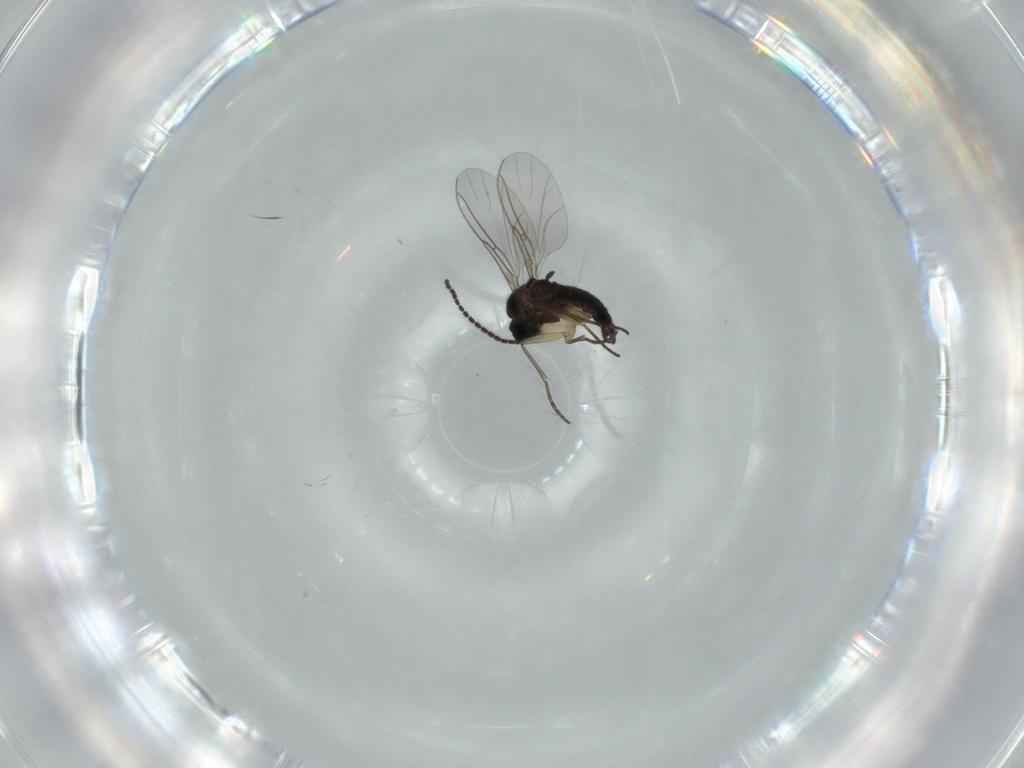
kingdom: Animalia
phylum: Arthropoda
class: Insecta
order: Diptera
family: Sciaridae
